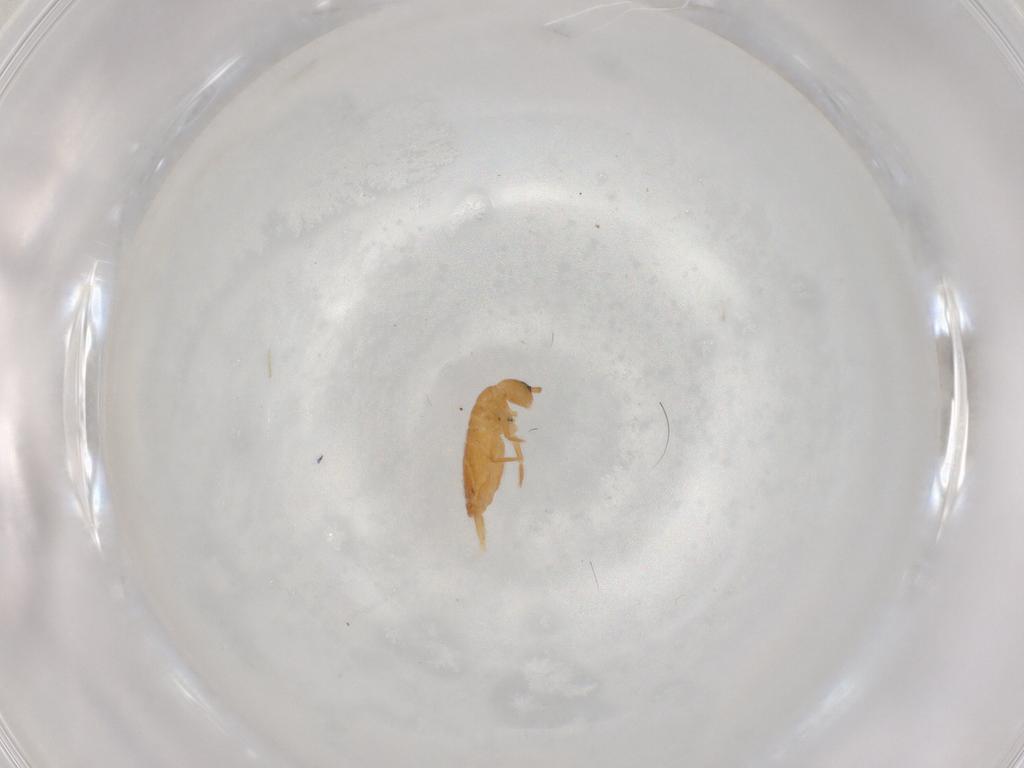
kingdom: Animalia
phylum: Arthropoda
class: Collembola
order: Entomobryomorpha
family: Entomobryidae
